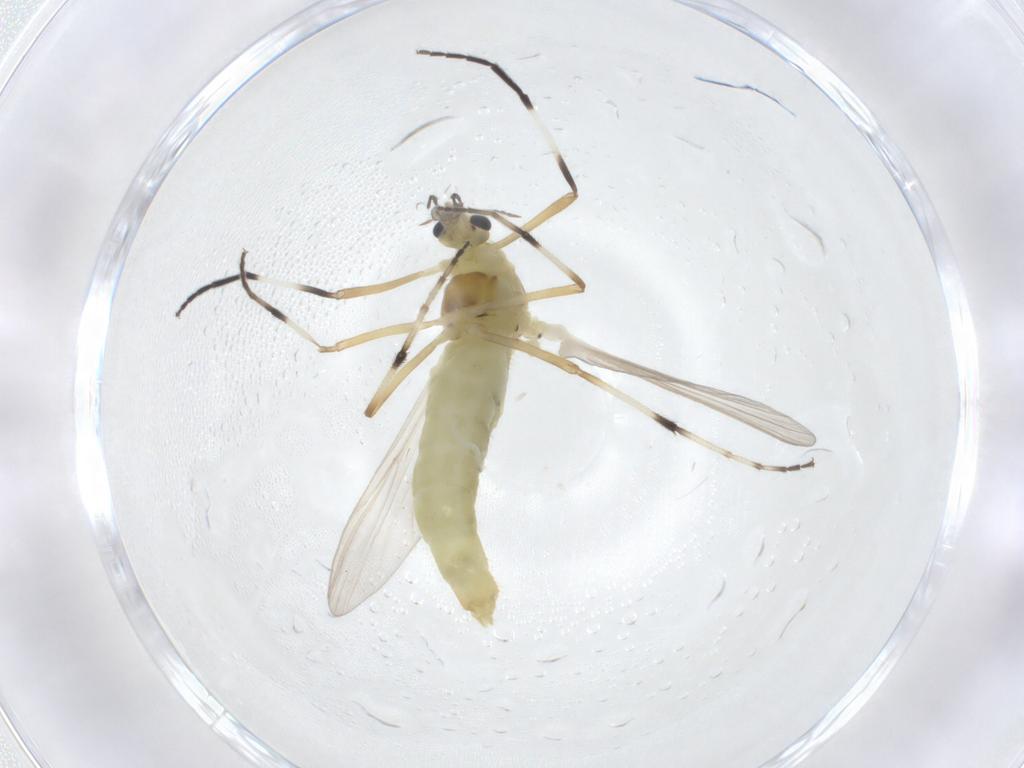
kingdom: Animalia
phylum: Arthropoda
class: Insecta
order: Diptera
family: Chironomidae
